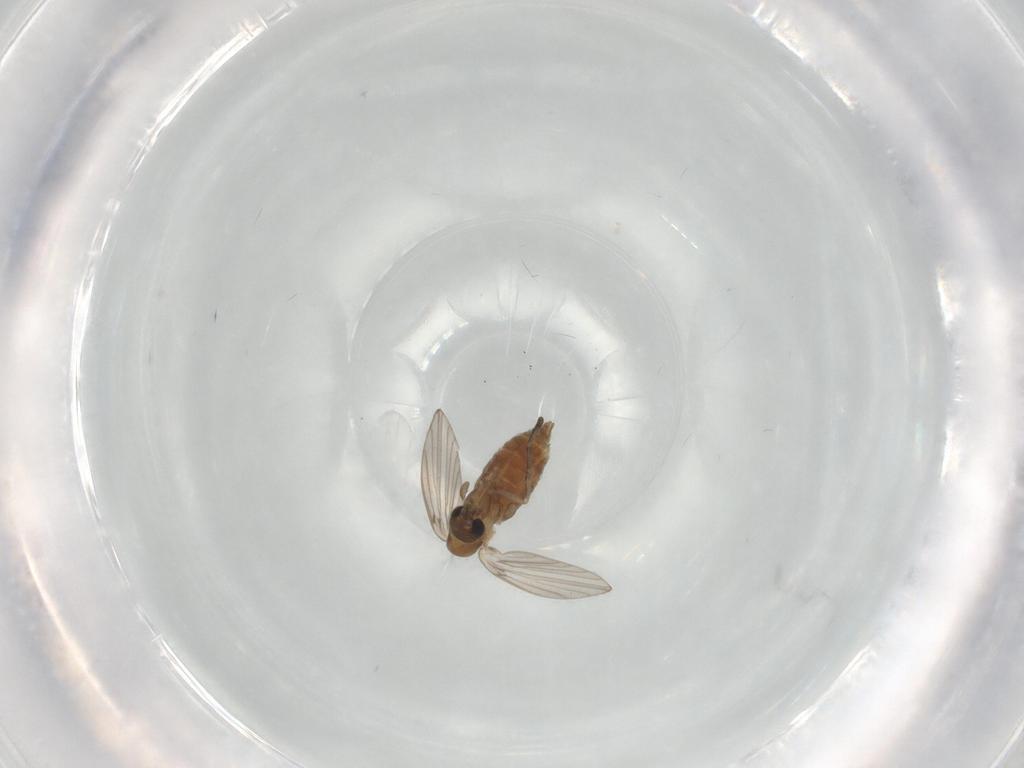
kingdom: Animalia
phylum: Arthropoda
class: Insecta
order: Diptera
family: Psychodidae
